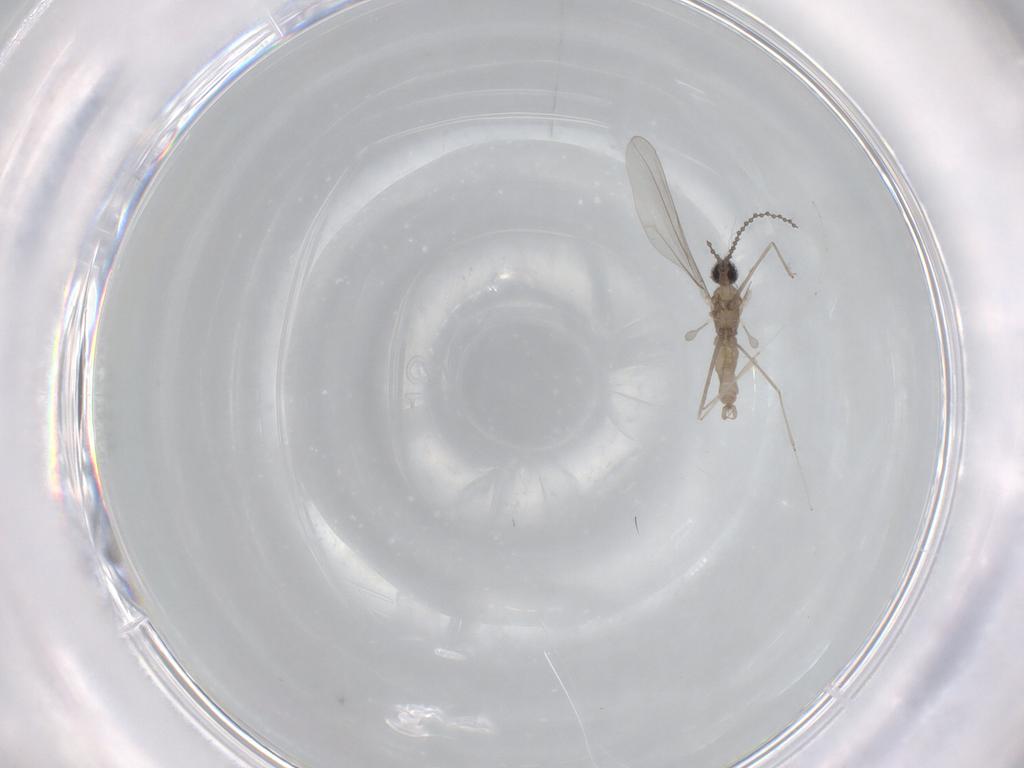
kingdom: Animalia
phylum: Arthropoda
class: Insecta
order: Diptera
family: Cecidomyiidae
